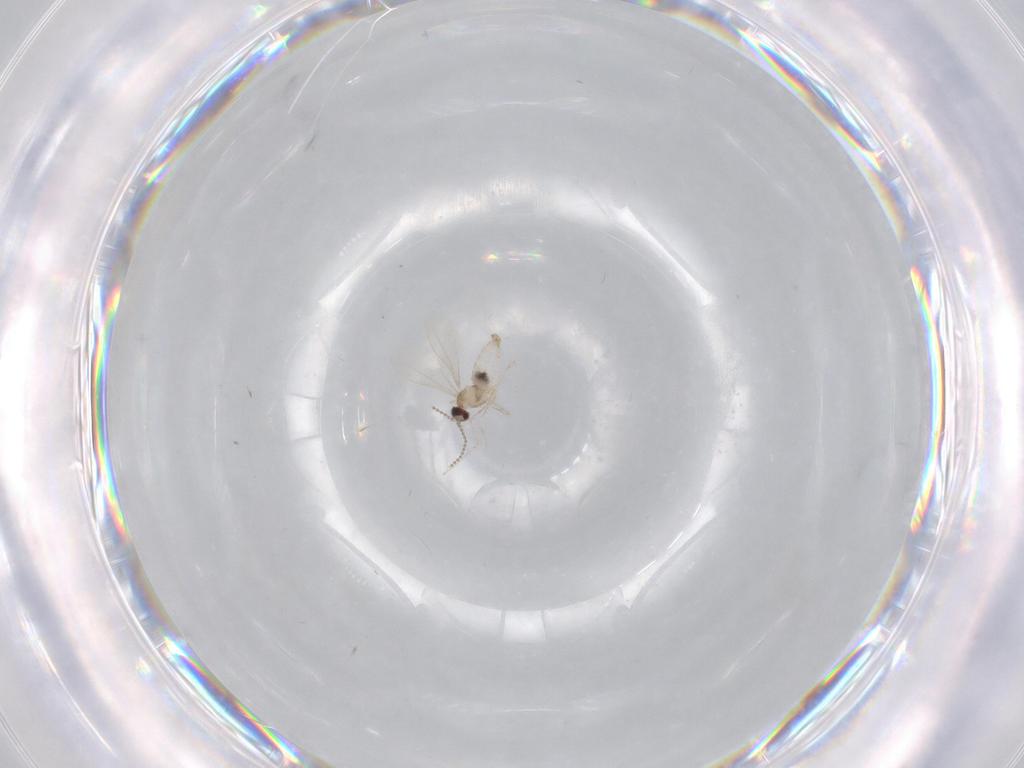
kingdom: Animalia
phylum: Arthropoda
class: Insecta
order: Diptera
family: Cecidomyiidae
